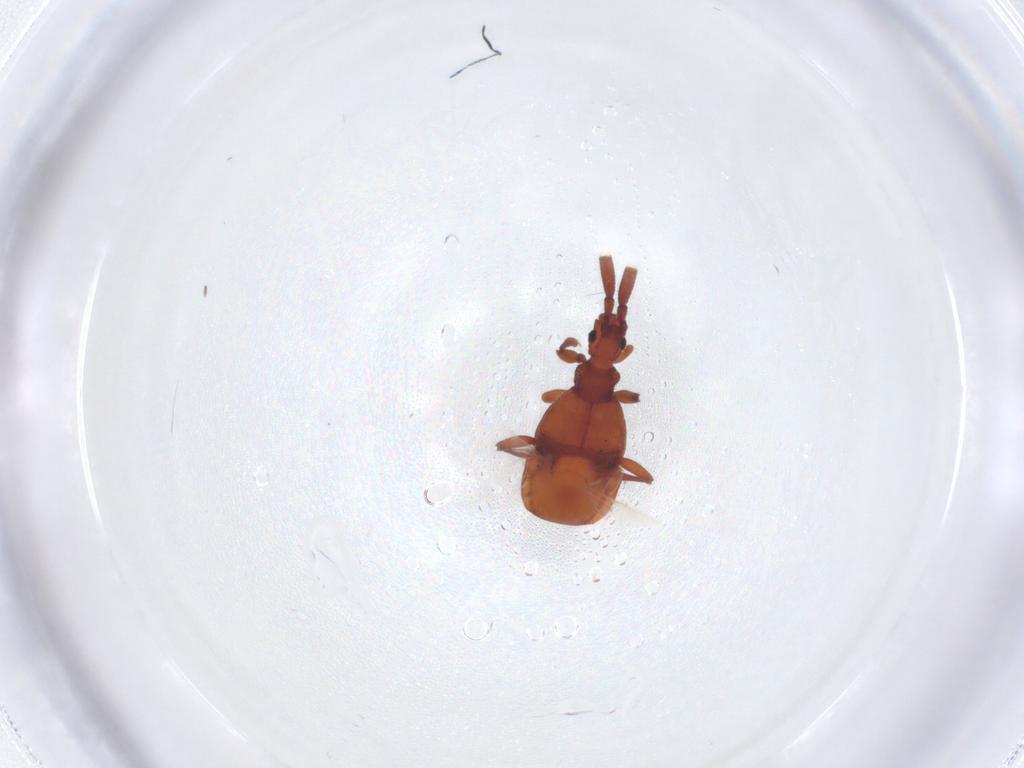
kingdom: Animalia
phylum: Arthropoda
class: Insecta
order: Coleoptera
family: Staphylinidae
